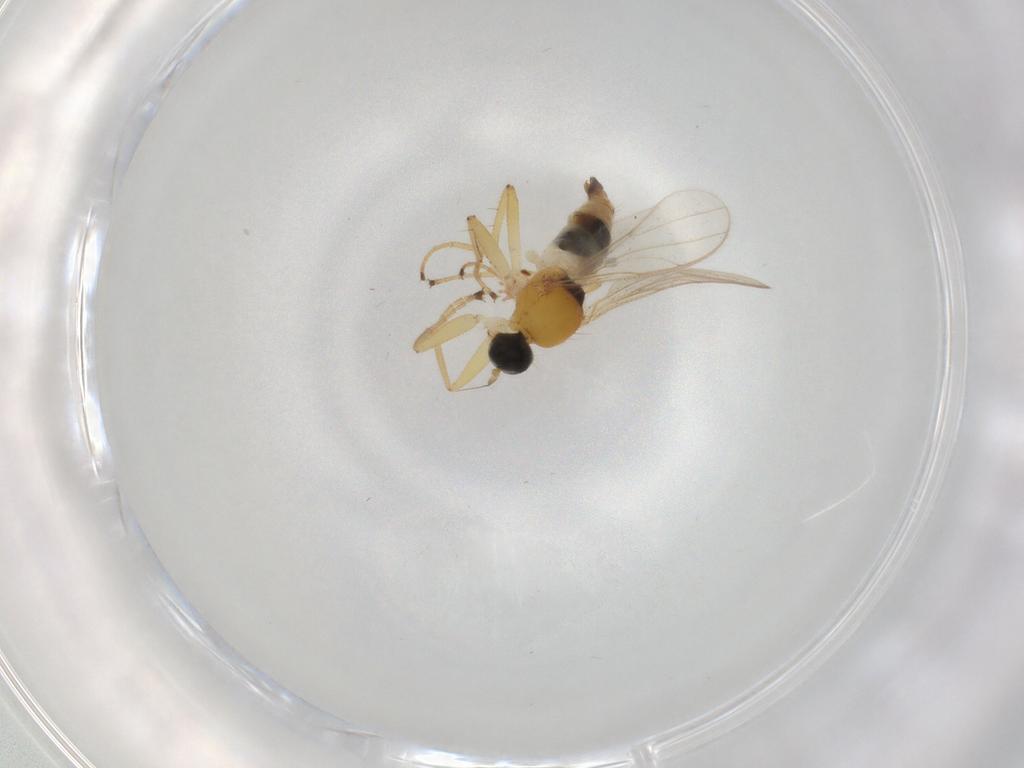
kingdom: Animalia
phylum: Arthropoda
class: Insecta
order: Diptera
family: Hybotidae
